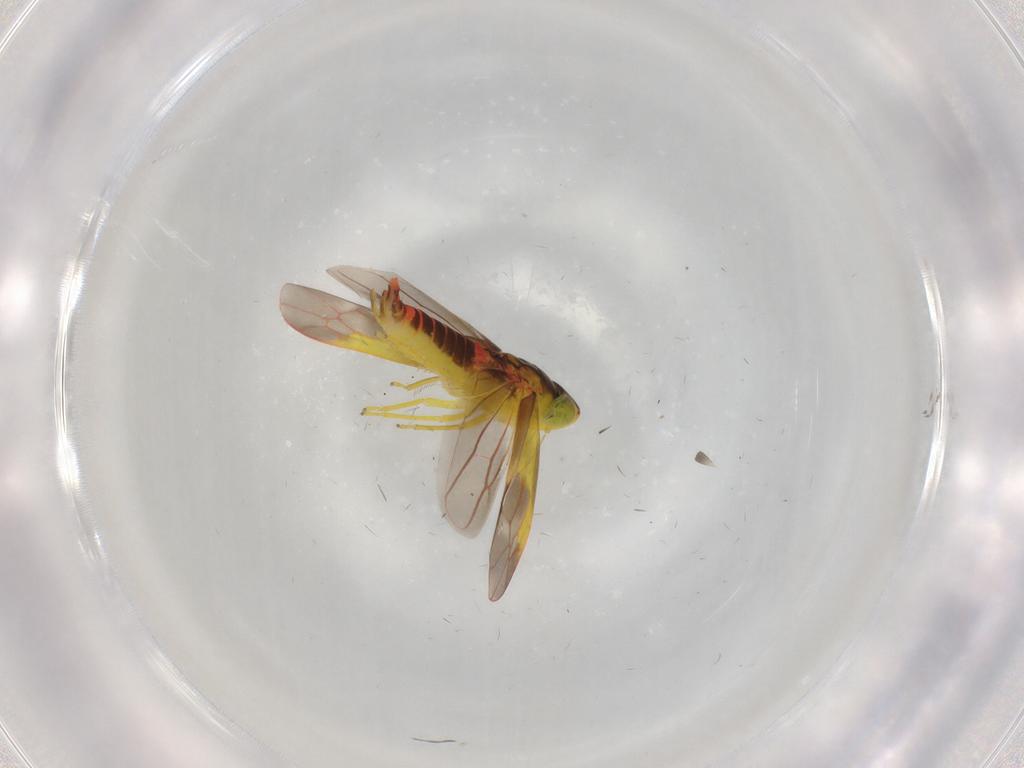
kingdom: Animalia
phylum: Arthropoda
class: Insecta
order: Hemiptera
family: Cicadellidae
